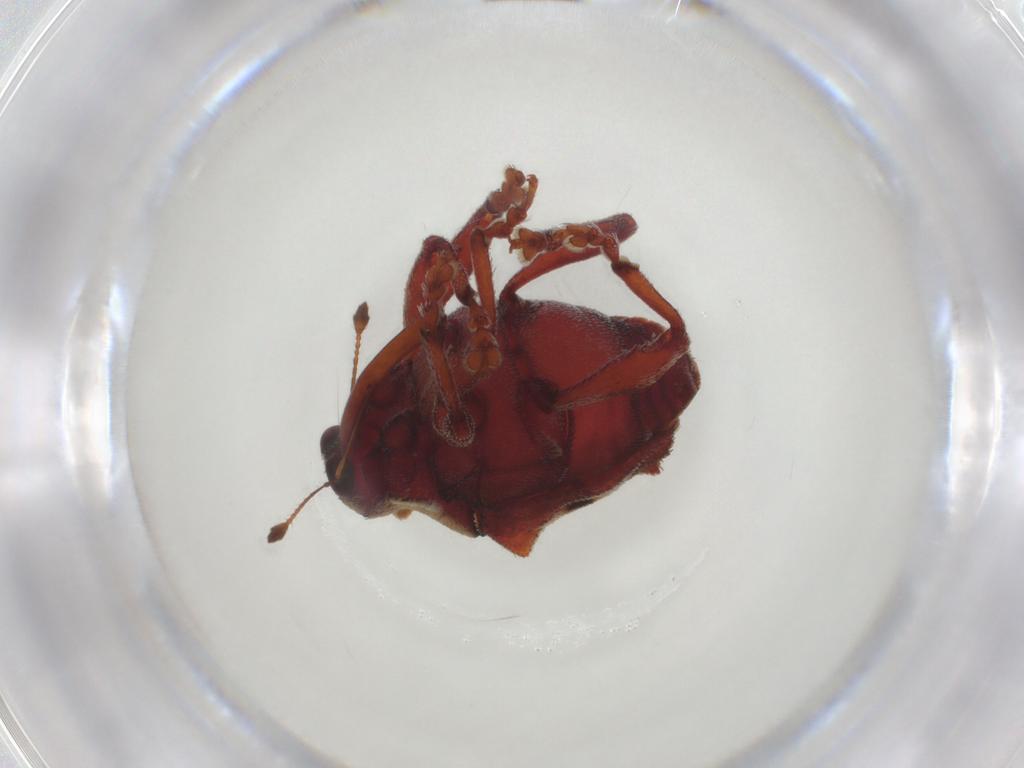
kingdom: Animalia
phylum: Arthropoda
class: Insecta
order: Coleoptera
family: Curculionidae
